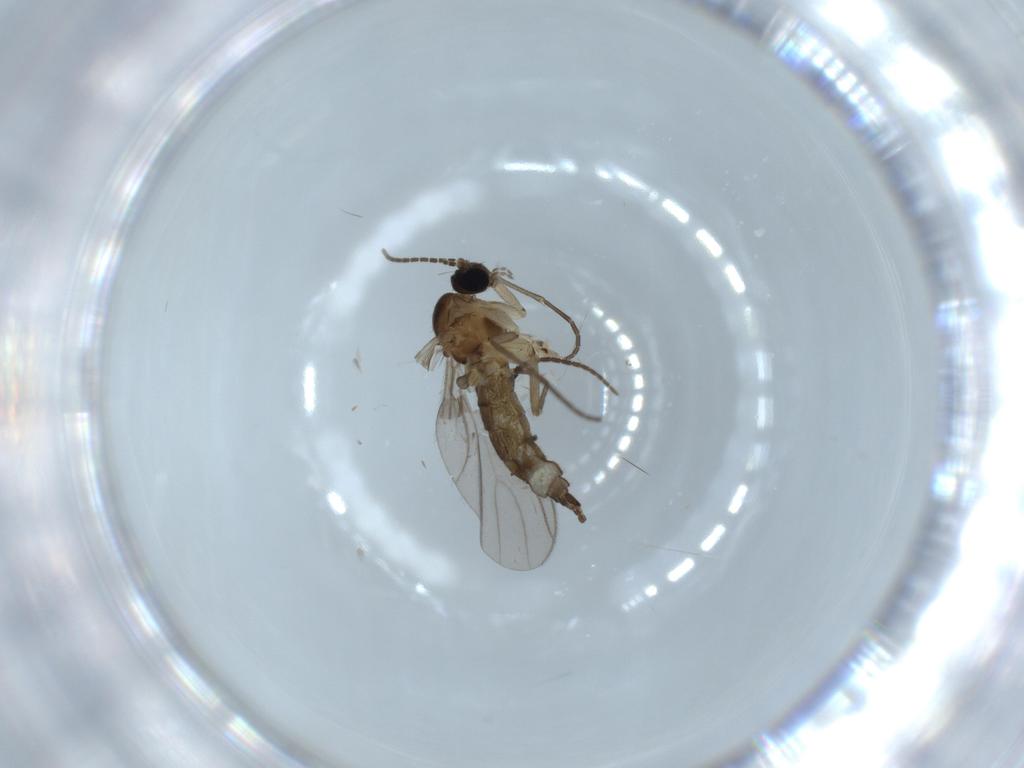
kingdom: Animalia
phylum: Arthropoda
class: Insecta
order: Diptera
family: Sciaridae
